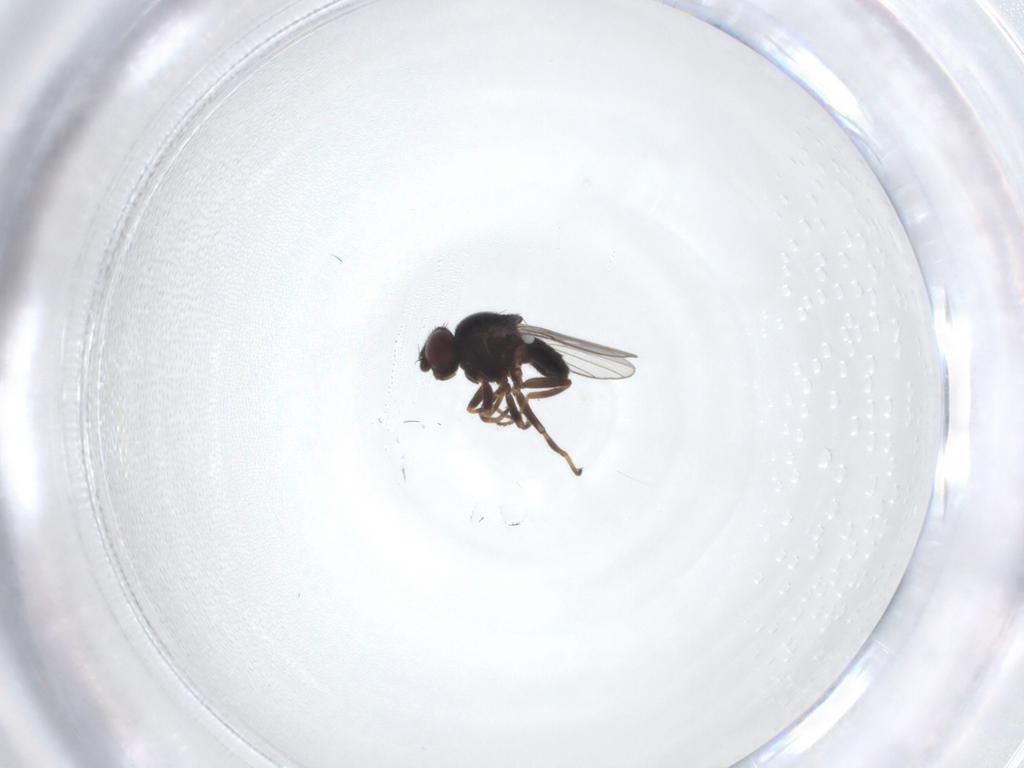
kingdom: Animalia
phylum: Arthropoda
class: Insecta
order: Diptera
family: Chloropidae
